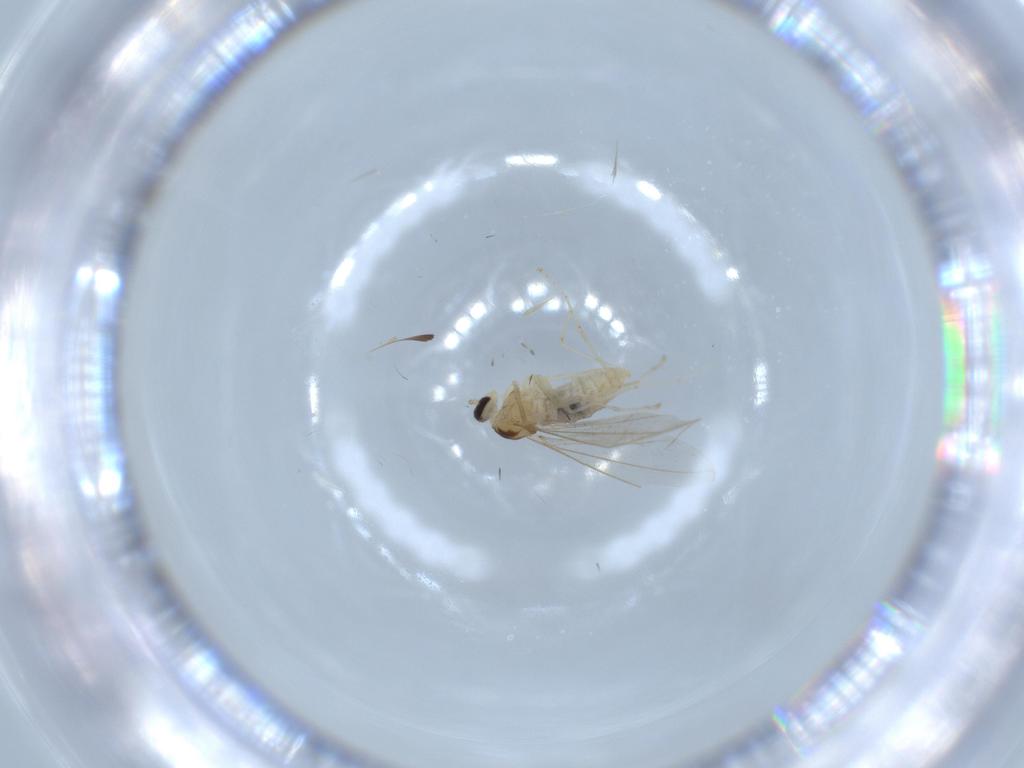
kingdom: Animalia
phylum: Arthropoda
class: Insecta
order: Diptera
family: Cecidomyiidae
